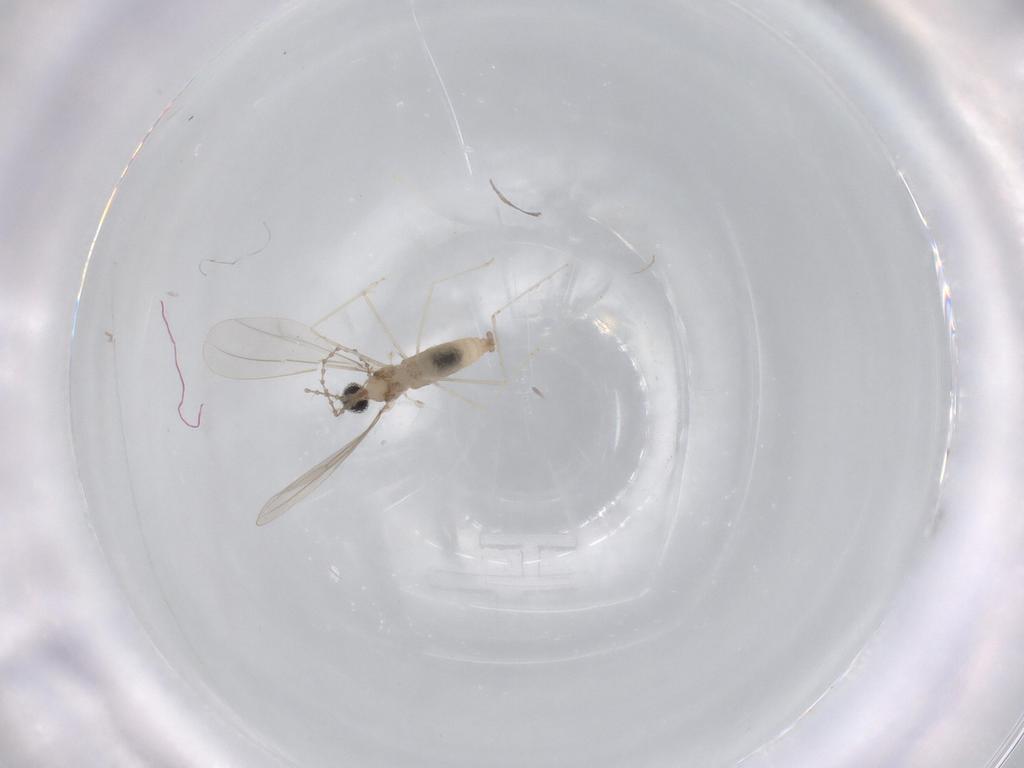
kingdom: Animalia
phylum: Arthropoda
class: Insecta
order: Diptera
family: Cecidomyiidae
